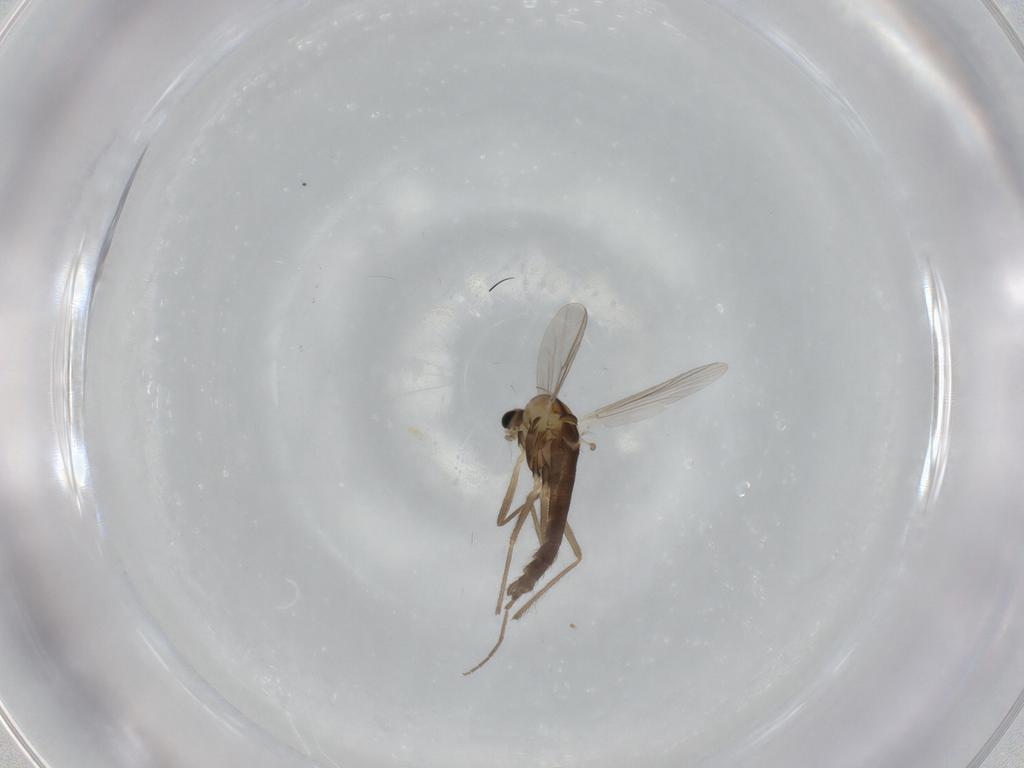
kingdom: Animalia
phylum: Arthropoda
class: Insecta
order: Diptera
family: Chironomidae
